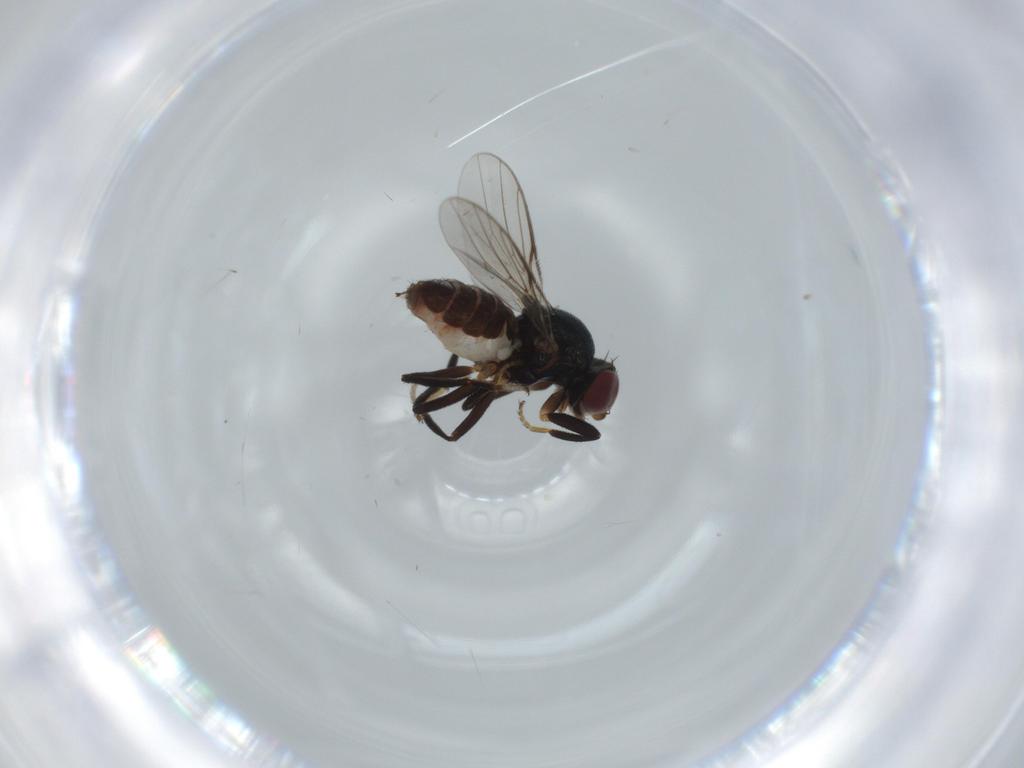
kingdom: Animalia
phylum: Arthropoda
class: Insecta
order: Diptera
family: Chloropidae
